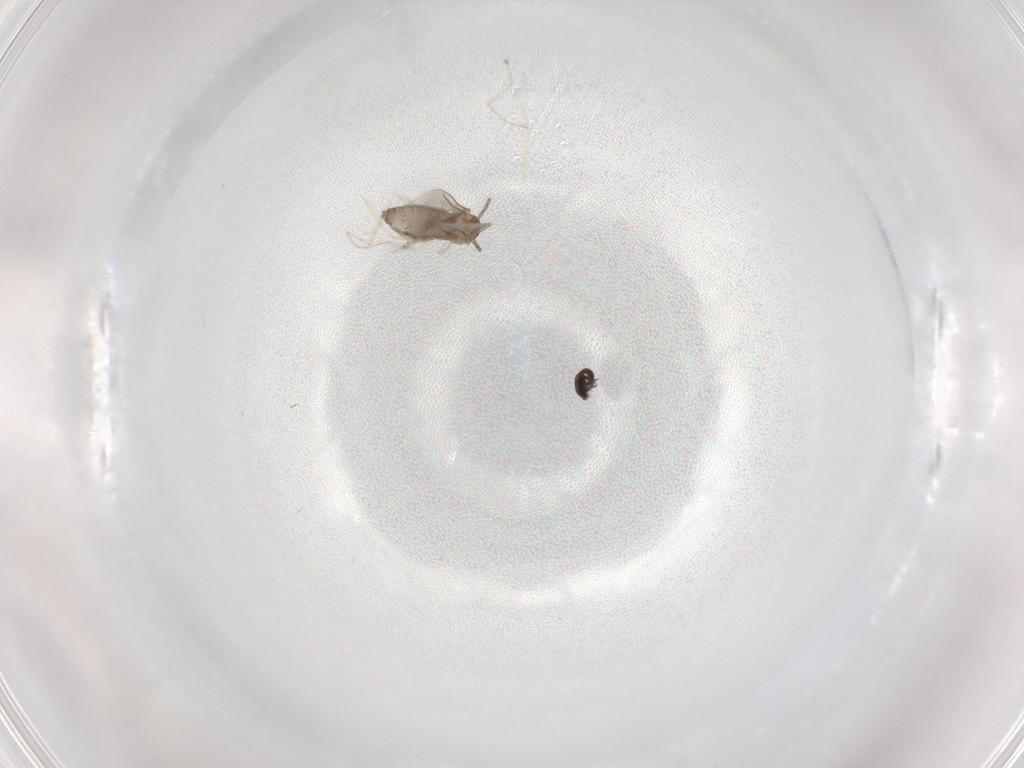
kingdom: Animalia
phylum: Arthropoda
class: Insecta
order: Diptera
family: Cecidomyiidae
